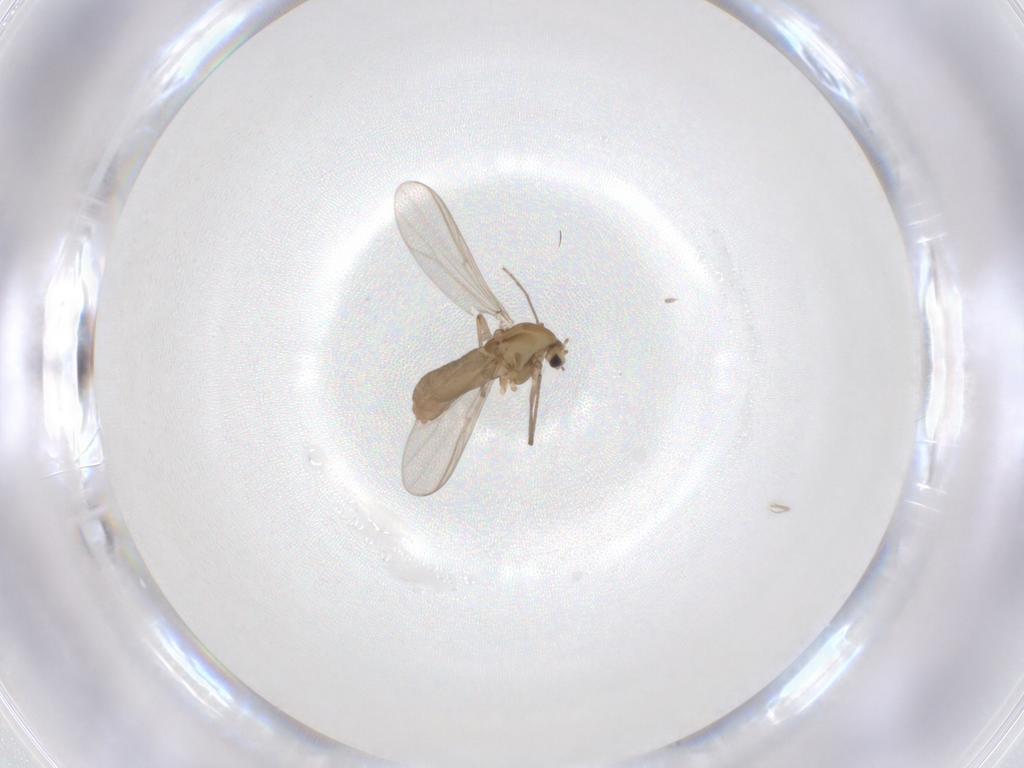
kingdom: Animalia
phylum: Arthropoda
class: Insecta
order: Diptera
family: Chironomidae
